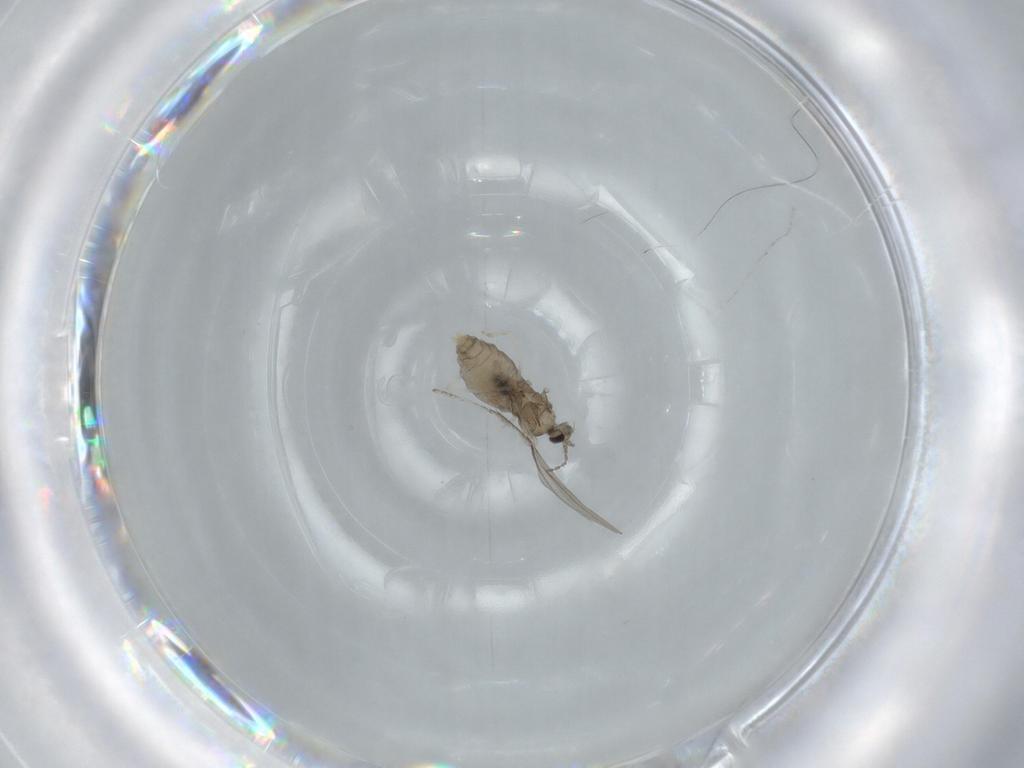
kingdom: Animalia
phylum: Arthropoda
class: Insecta
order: Diptera
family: Cecidomyiidae
